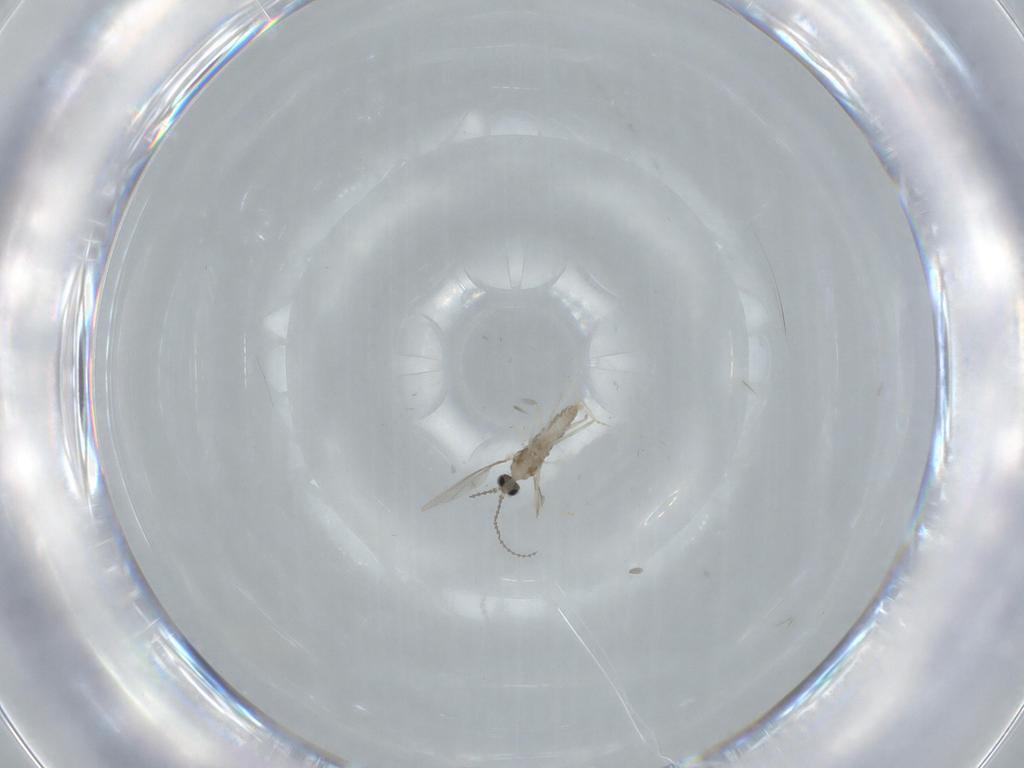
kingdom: Animalia
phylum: Arthropoda
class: Insecta
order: Diptera
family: Cecidomyiidae
